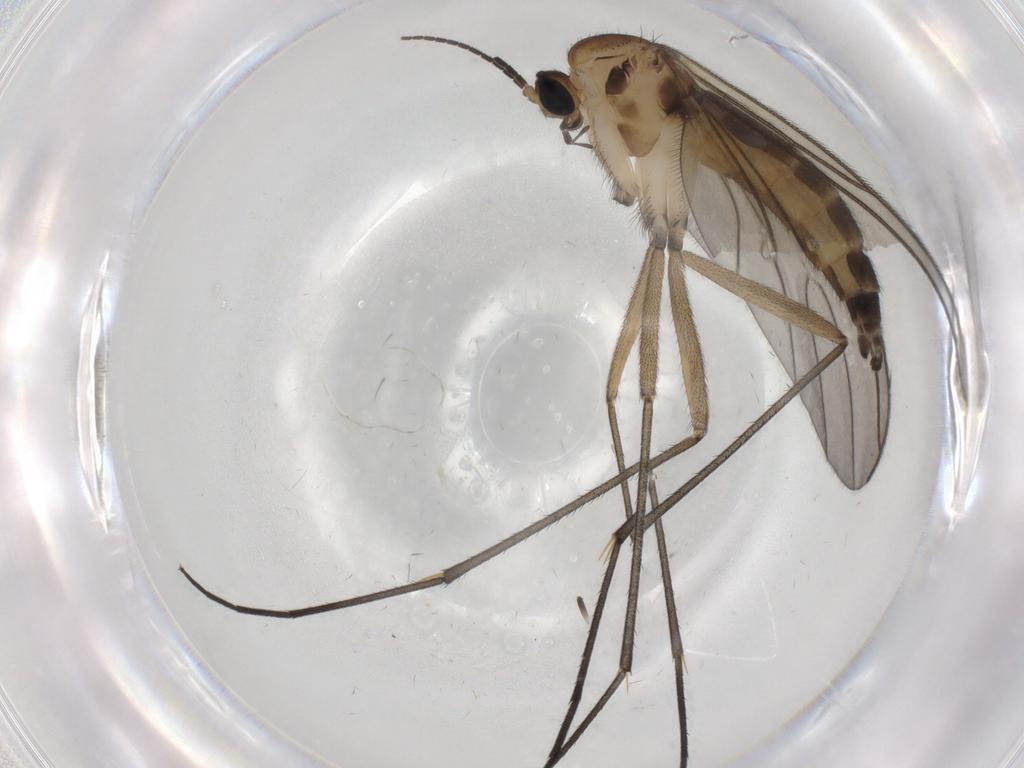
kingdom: Animalia
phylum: Arthropoda
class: Insecta
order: Diptera
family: Sciaridae
